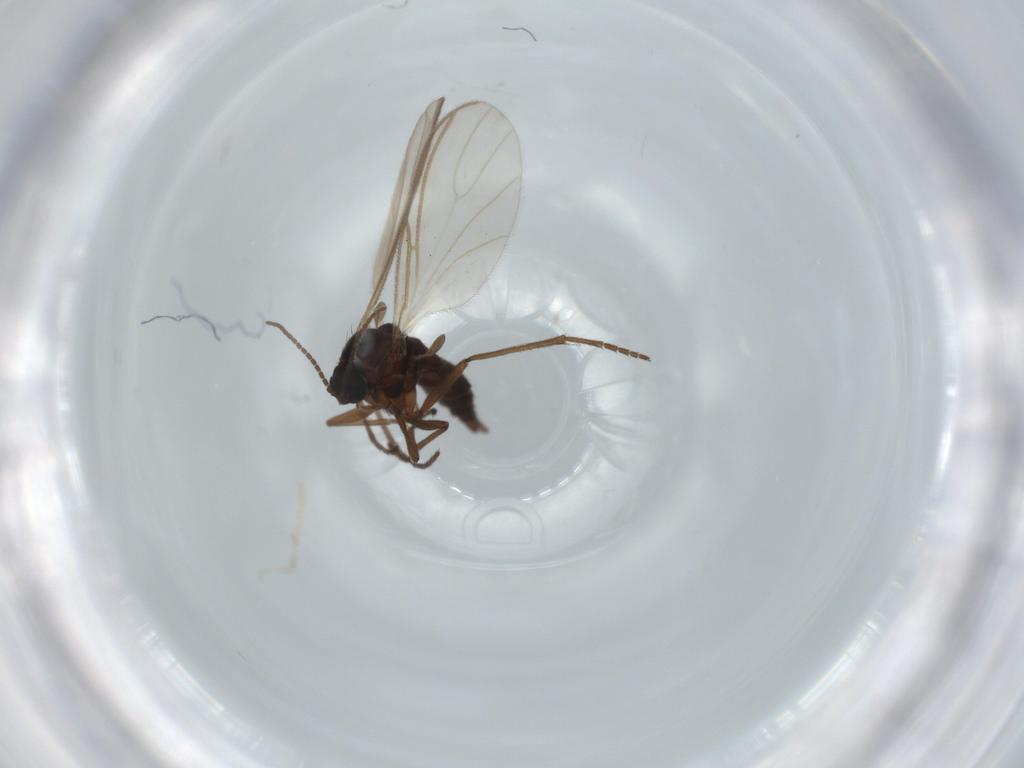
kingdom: Animalia
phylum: Arthropoda
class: Insecta
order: Diptera
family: Sciaridae
